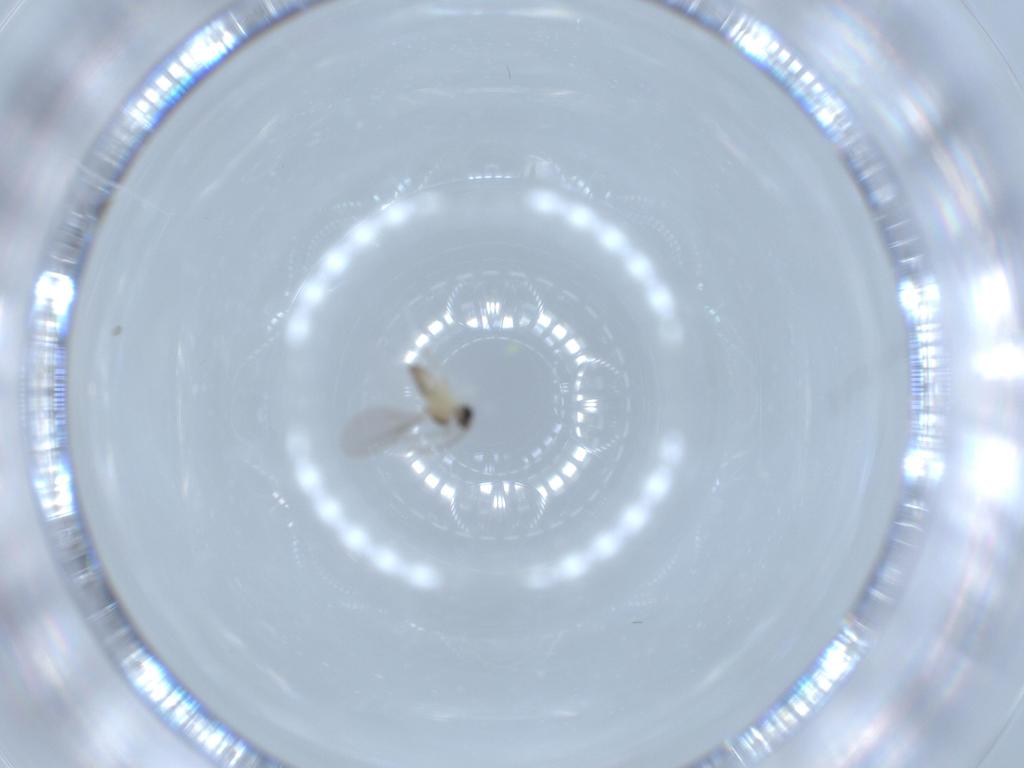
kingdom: Animalia
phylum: Arthropoda
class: Insecta
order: Diptera
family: Cecidomyiidae
